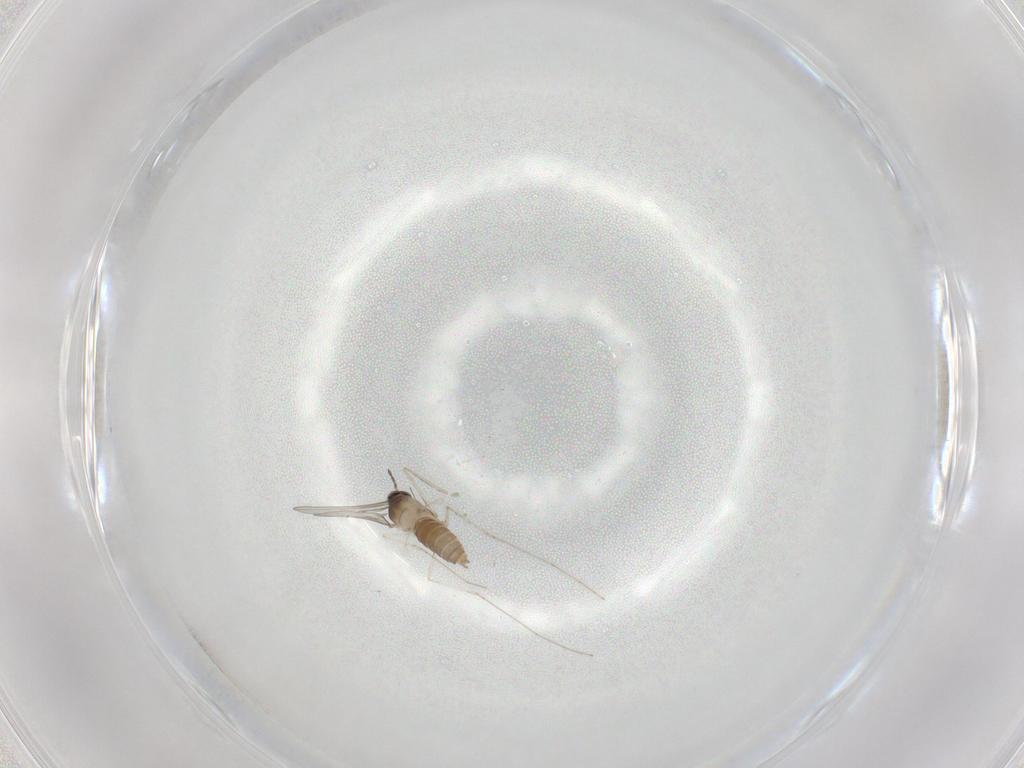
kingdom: Animalia
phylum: Arthropoda
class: Insecta
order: Diptera
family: Cecidomyiidae
